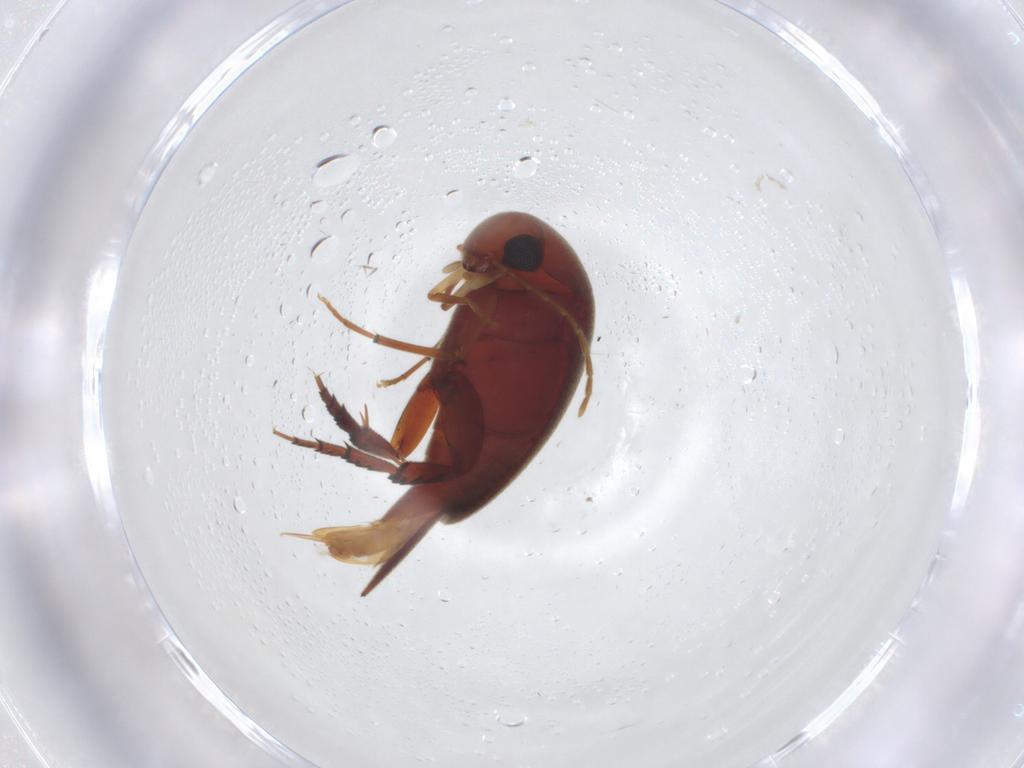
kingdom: Animalia
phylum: Arthropoda
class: Insecta
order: Coleoptera
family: Mordellidae
